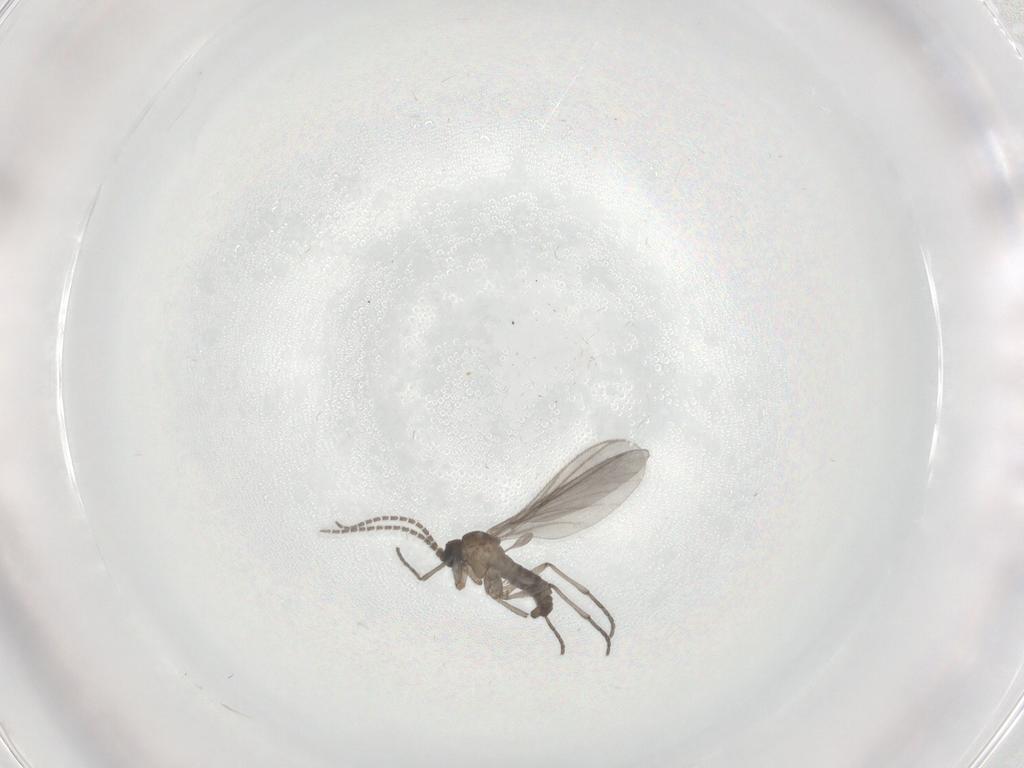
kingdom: Animalia
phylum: Arthropoda
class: Insecta
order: Diptera
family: Sciaridae
